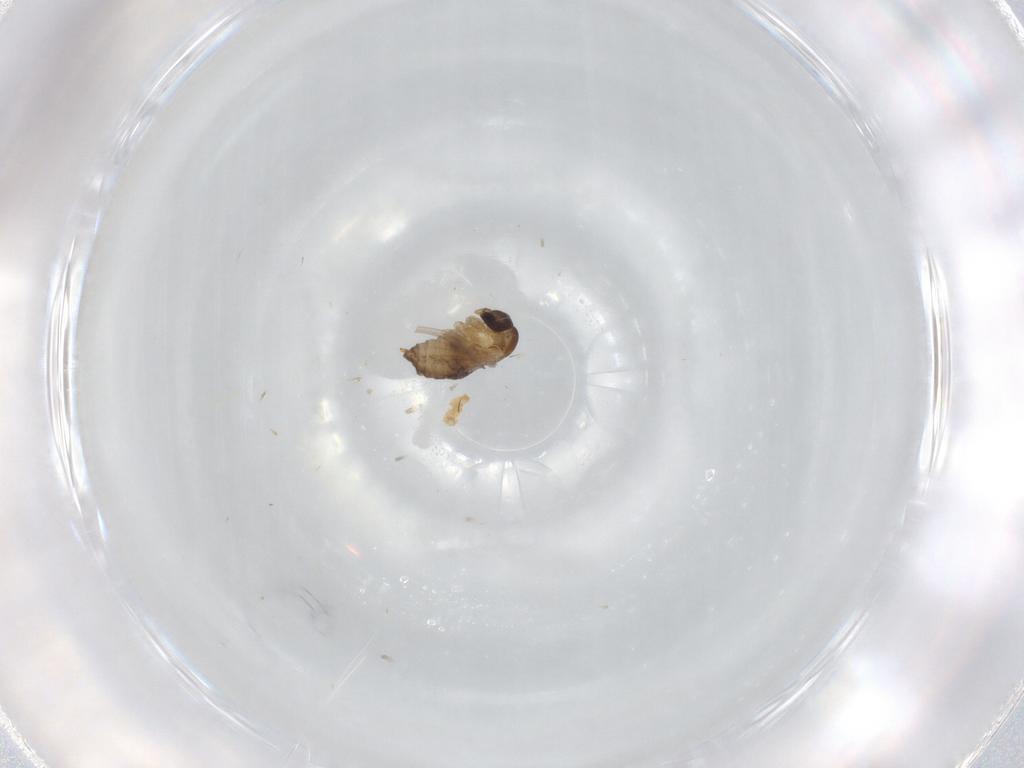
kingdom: Animalia
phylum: Arthropoda
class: Insecta
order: Diptera
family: Psychodidae
